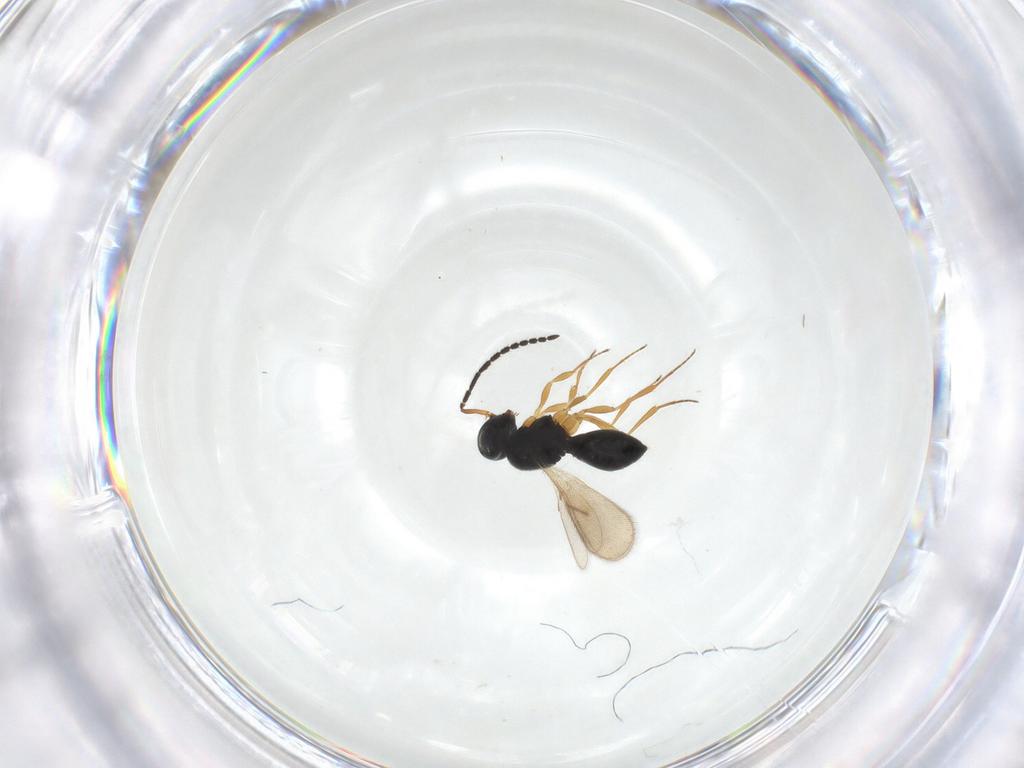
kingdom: Animalia
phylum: Arthropoda
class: Insecta
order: Hymenoptera
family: Scelionidae
